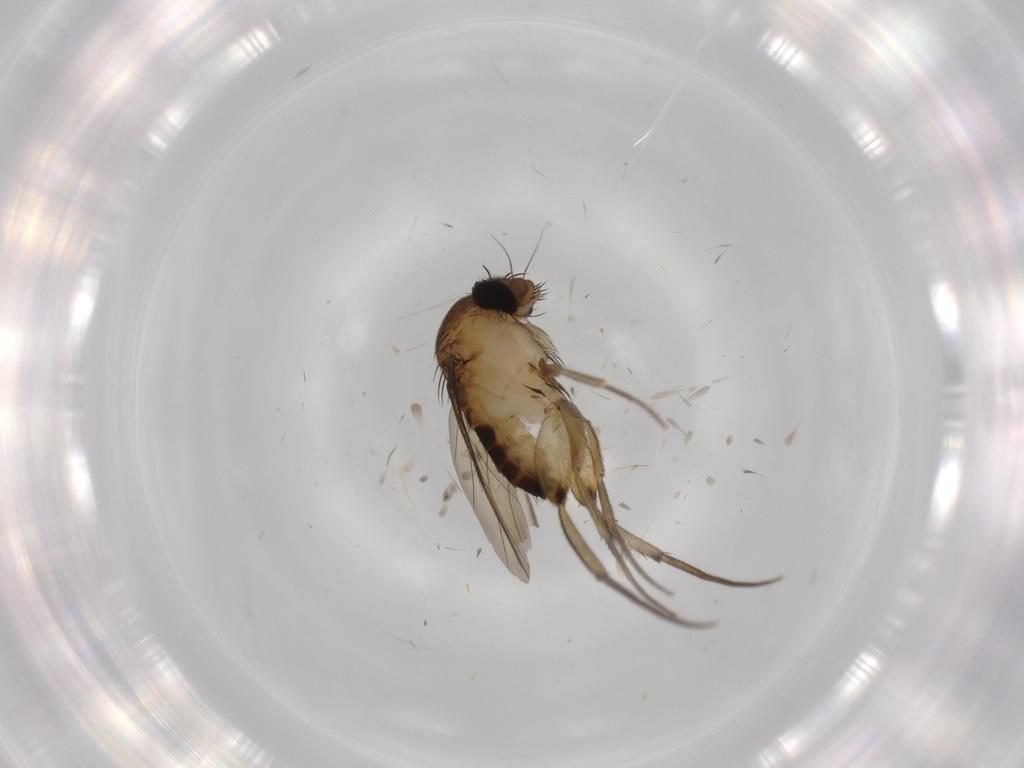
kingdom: Animalia
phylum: Arthropoda
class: Insecta
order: Diptera
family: Cecidomyiidae
